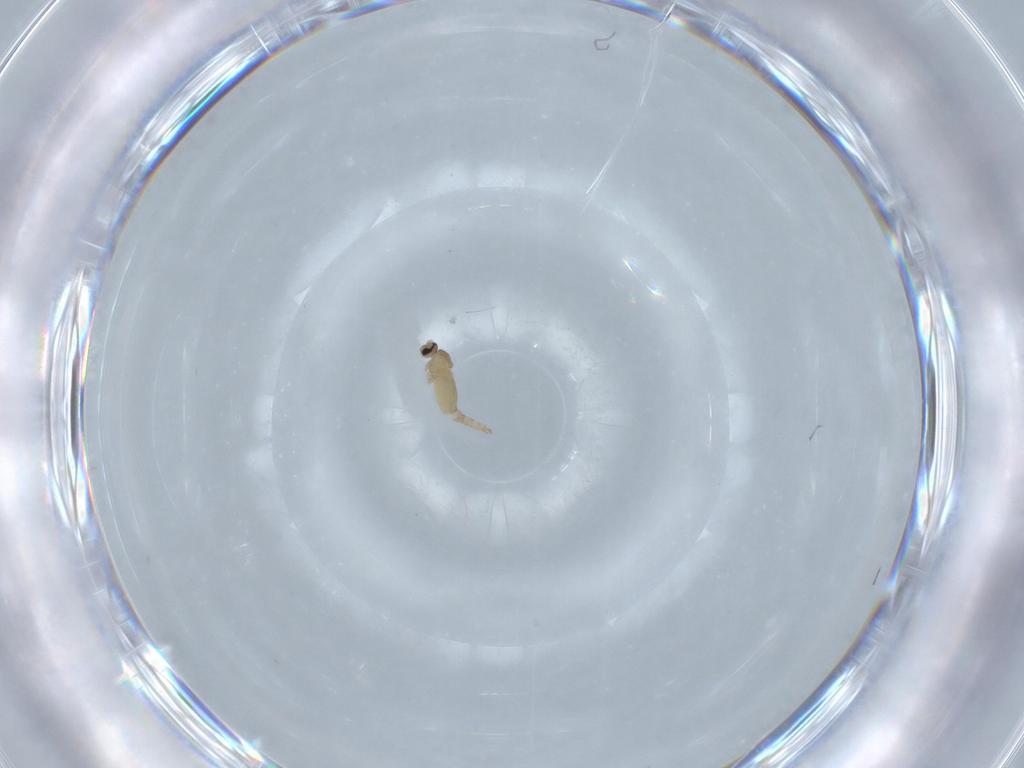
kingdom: Animalia
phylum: Arthropoda
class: Insecta
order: Diptera
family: Cecidomyiidae
